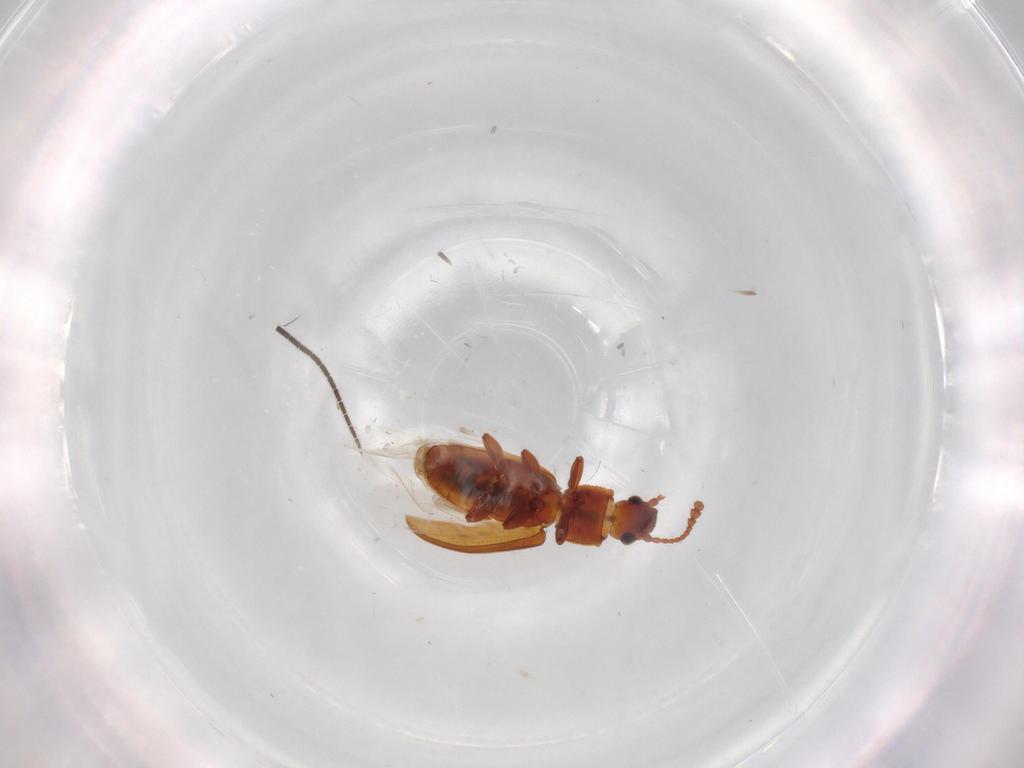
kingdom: Animalia
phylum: Arthropoda
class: Insecta
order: Coleoptera
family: Silvanidae
